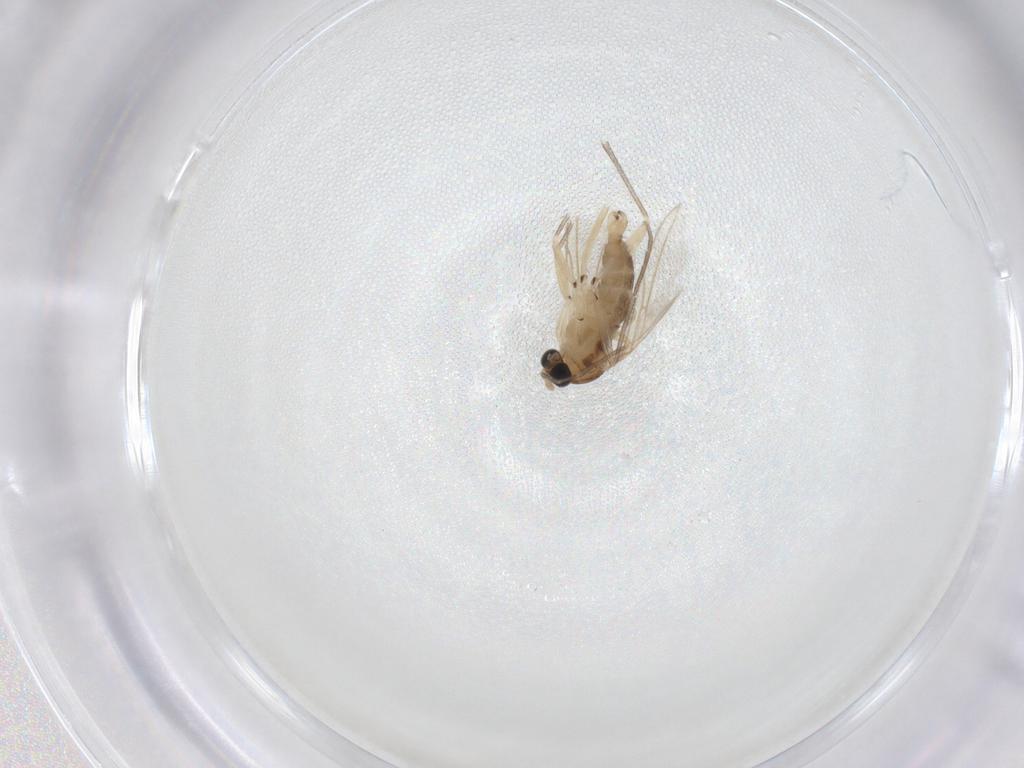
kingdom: Animalia
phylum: Arthropoda
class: Insecta
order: Diptera
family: Sciaridae
